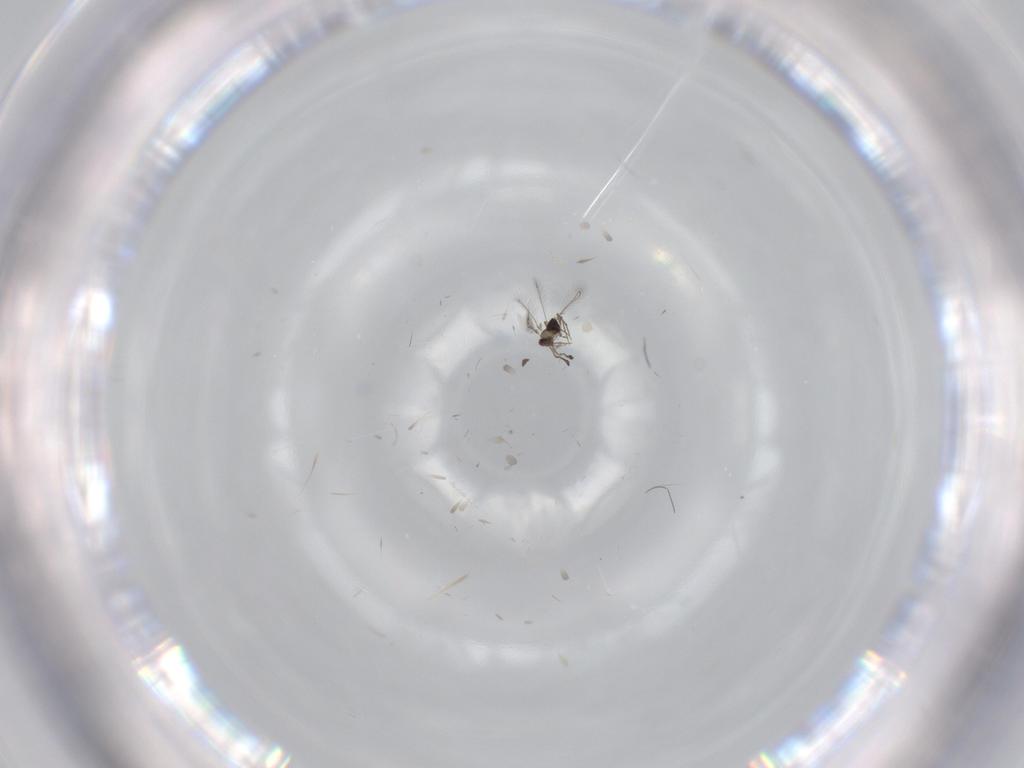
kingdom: Animalia
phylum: Arthropoda
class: Insecta
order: Hymenoptera
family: Mymaridae
